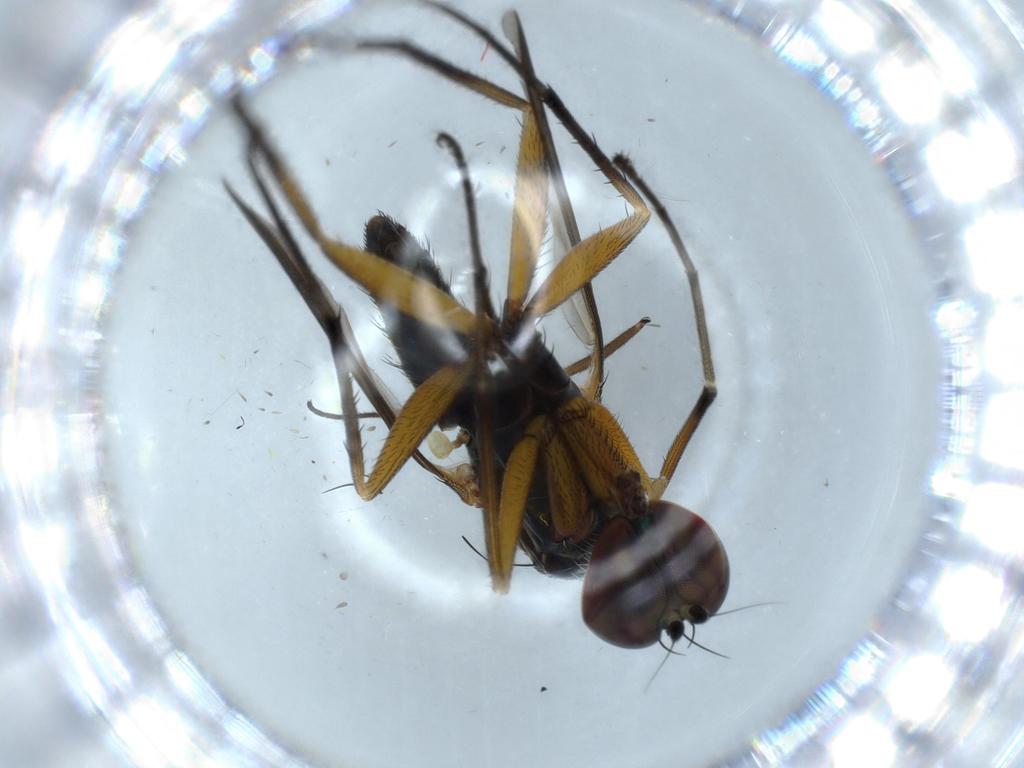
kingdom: Animalia
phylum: Arthropoda
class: Insecta
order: Diptera
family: Dolichopodidae
